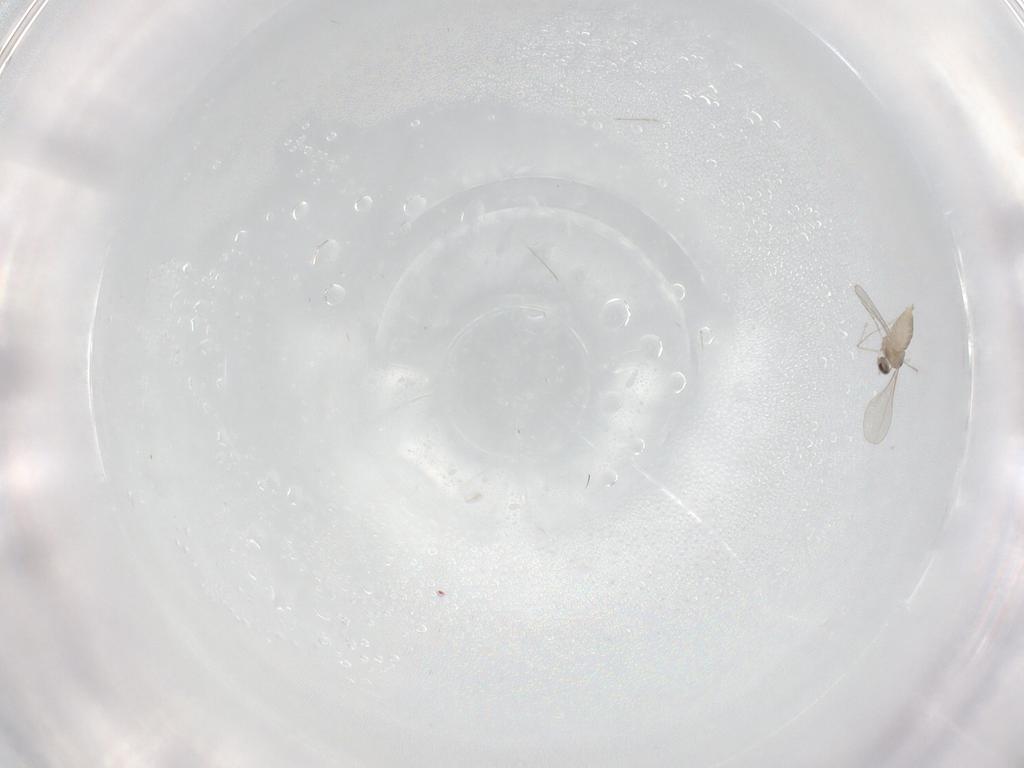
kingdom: Animalia
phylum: Arthropoda
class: Insecta
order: Diptera
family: Cecidomyiidae
